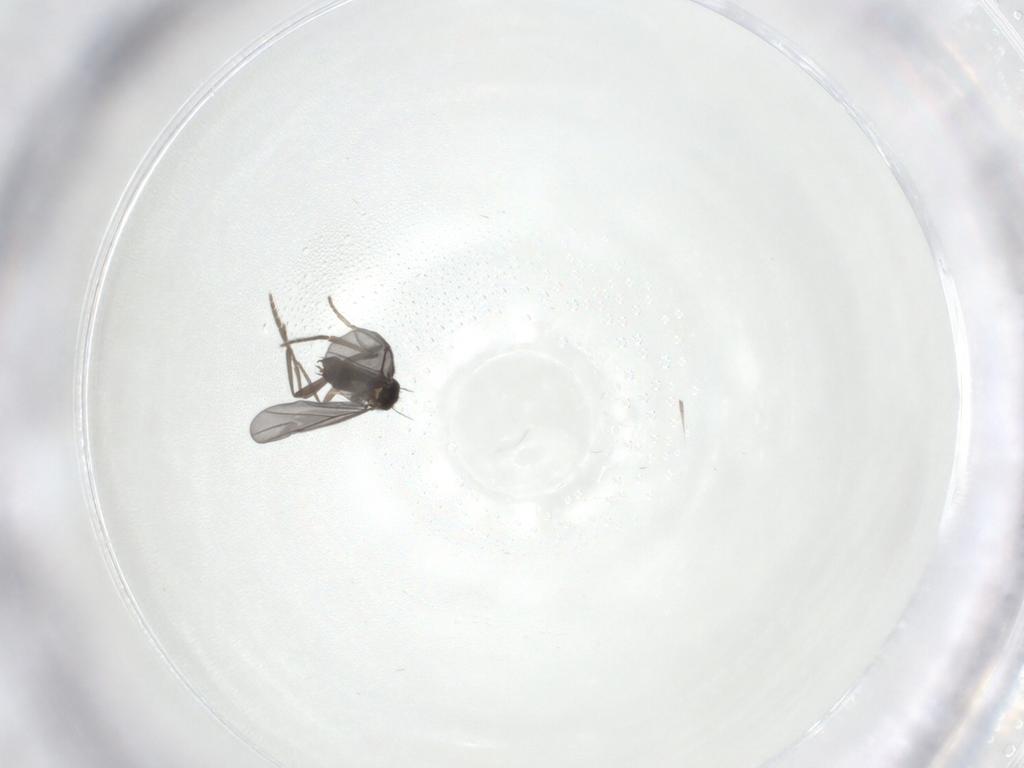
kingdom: Animalia
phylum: Arthropoda
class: Insecta
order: Diptera
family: Phoridae
